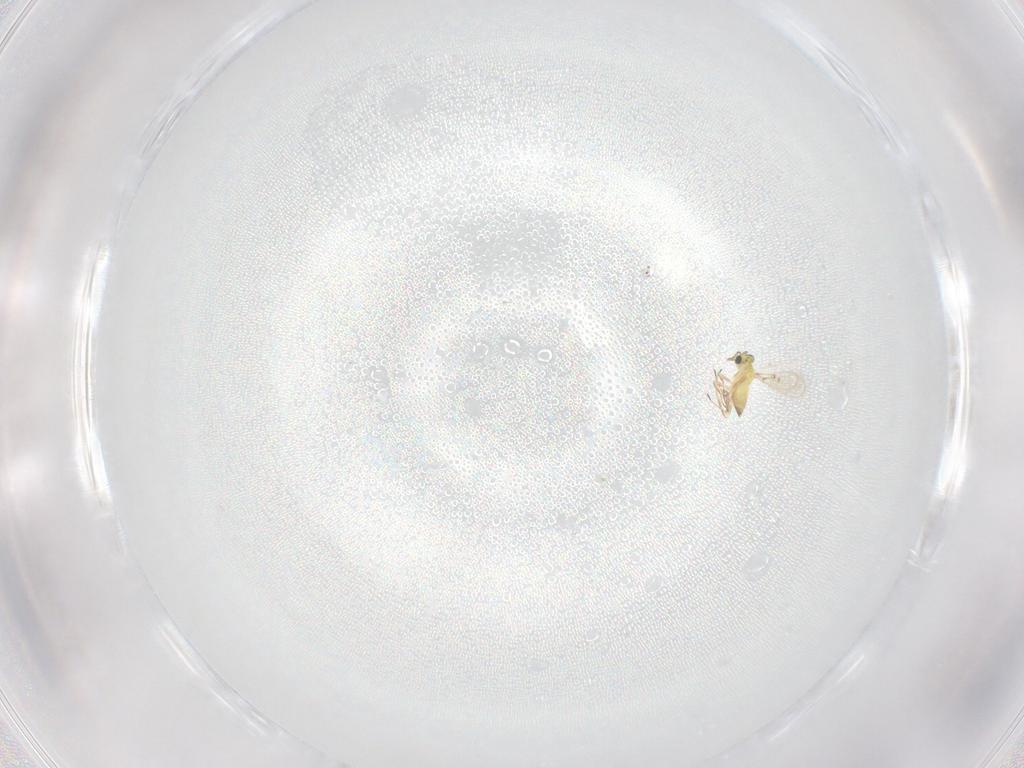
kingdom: Animalia
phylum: Arthropoda
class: Insecta
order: Hymenoptera
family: Trichogrammatidae
